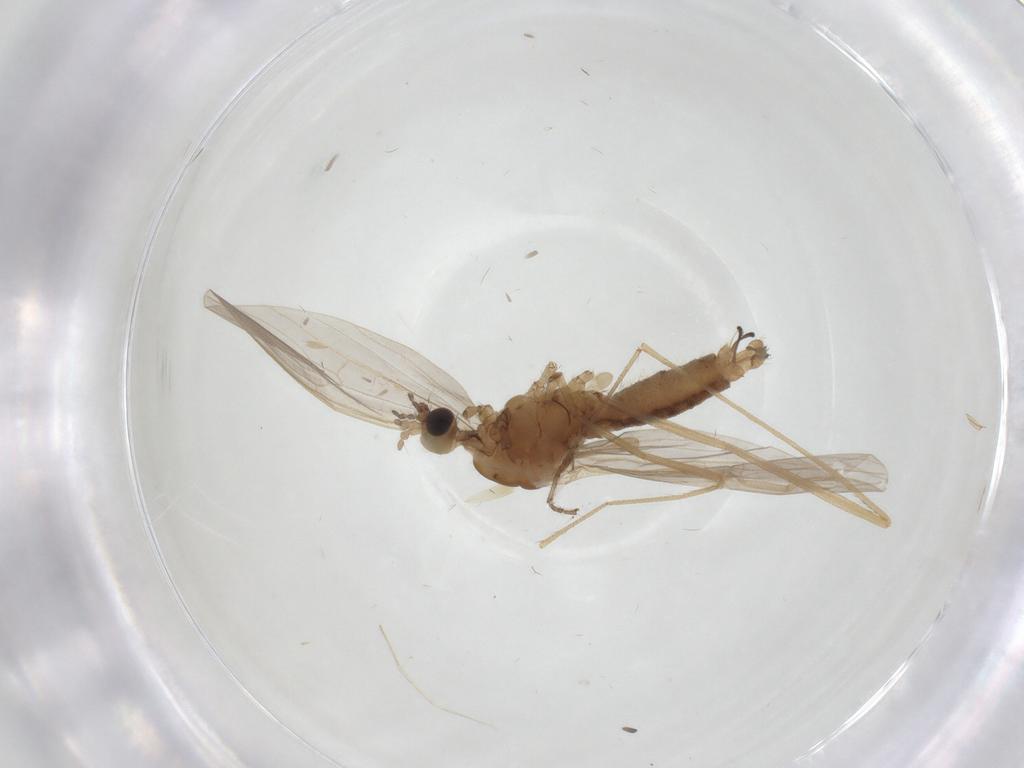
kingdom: Animalia
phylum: Arthropoda
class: Insecta
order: Diptera
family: Limoniidae
